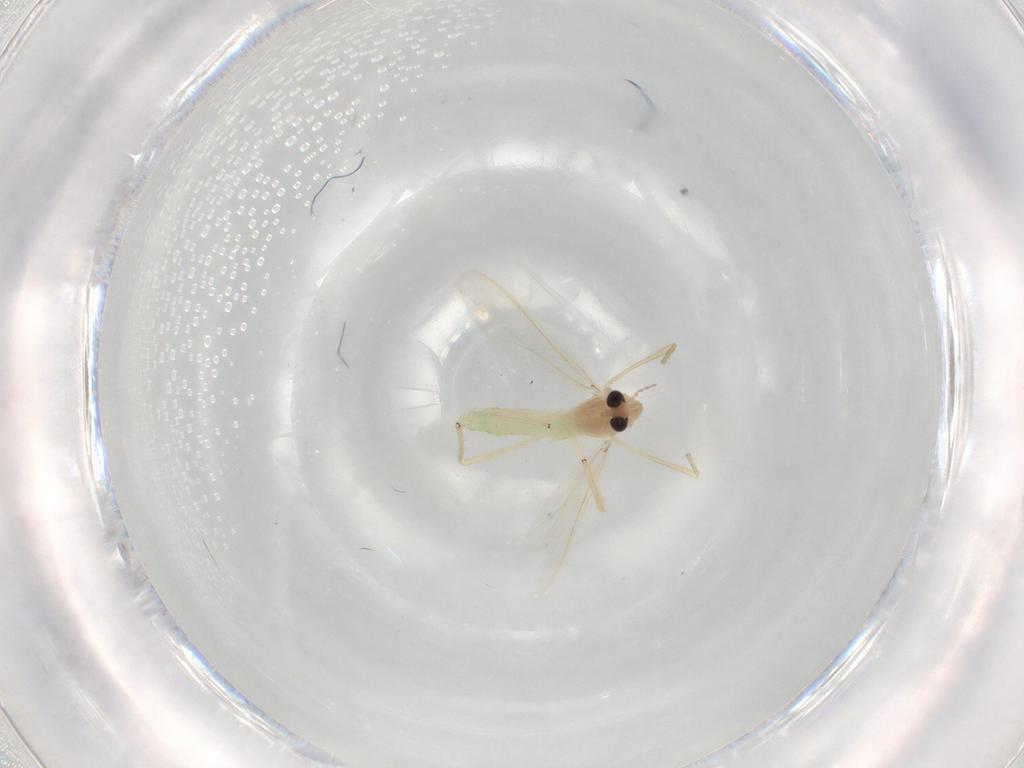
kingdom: Animalia
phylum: Arthropoda
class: Insecta
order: Diptera
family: Chironomidae
